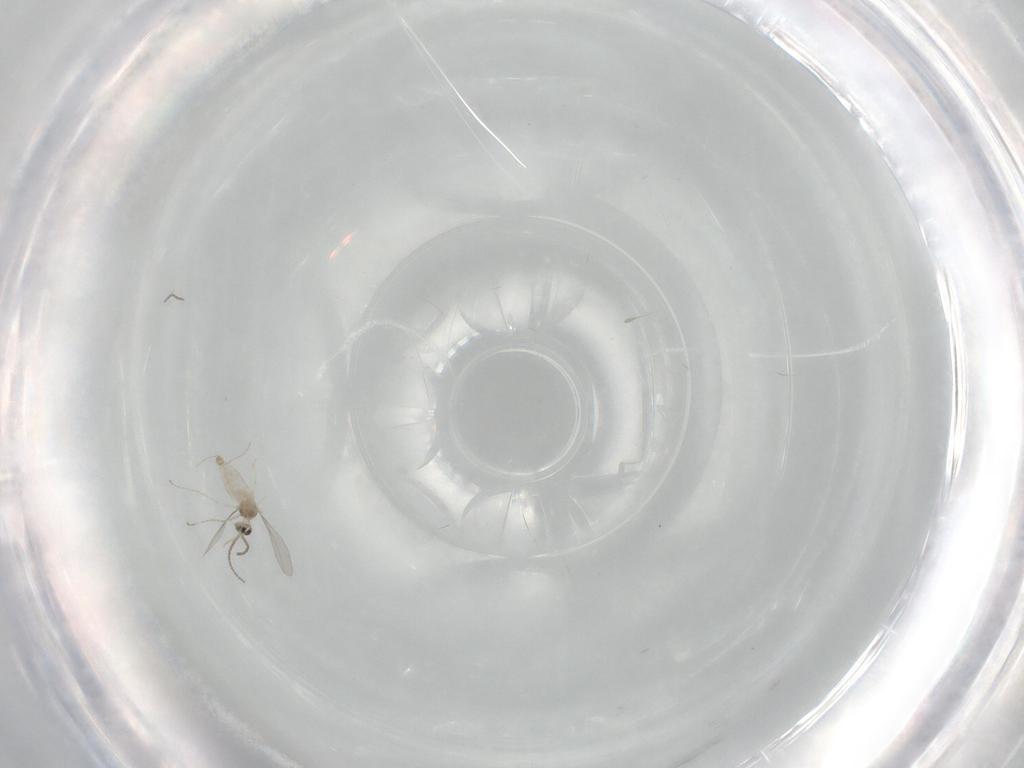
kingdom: Animalia
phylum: Arthropoda
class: Insecta
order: Diptera
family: Cecidomyiidae
